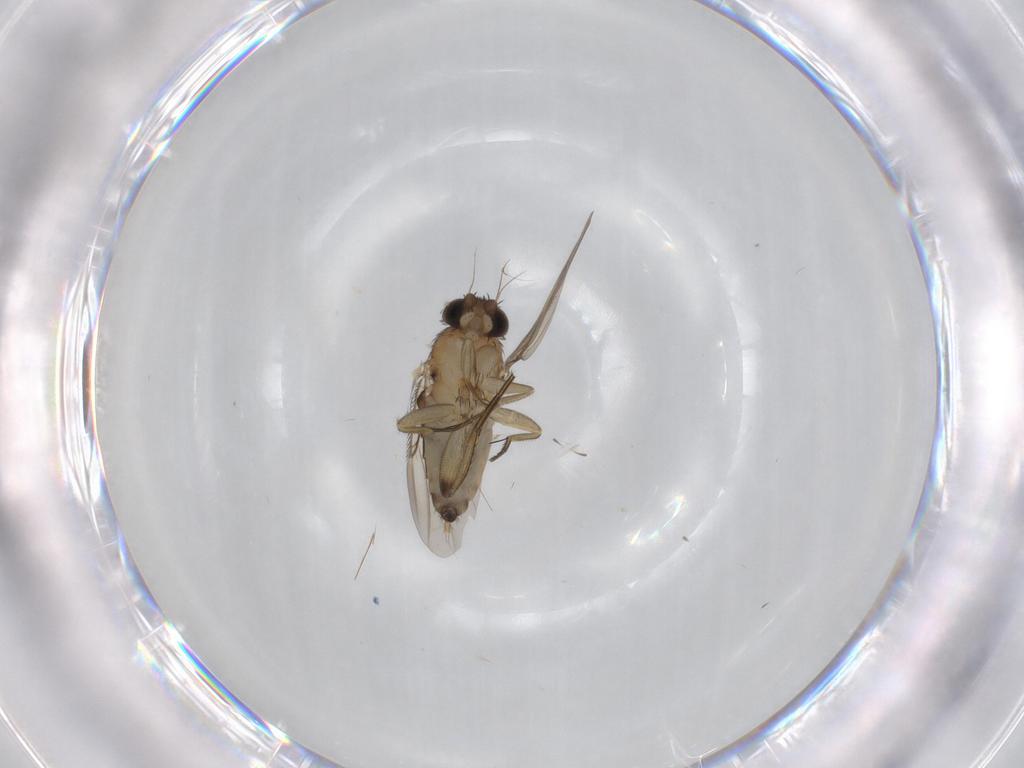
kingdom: Animalia
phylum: Arthropoda
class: Insecta
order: Diptera
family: Phoridae
